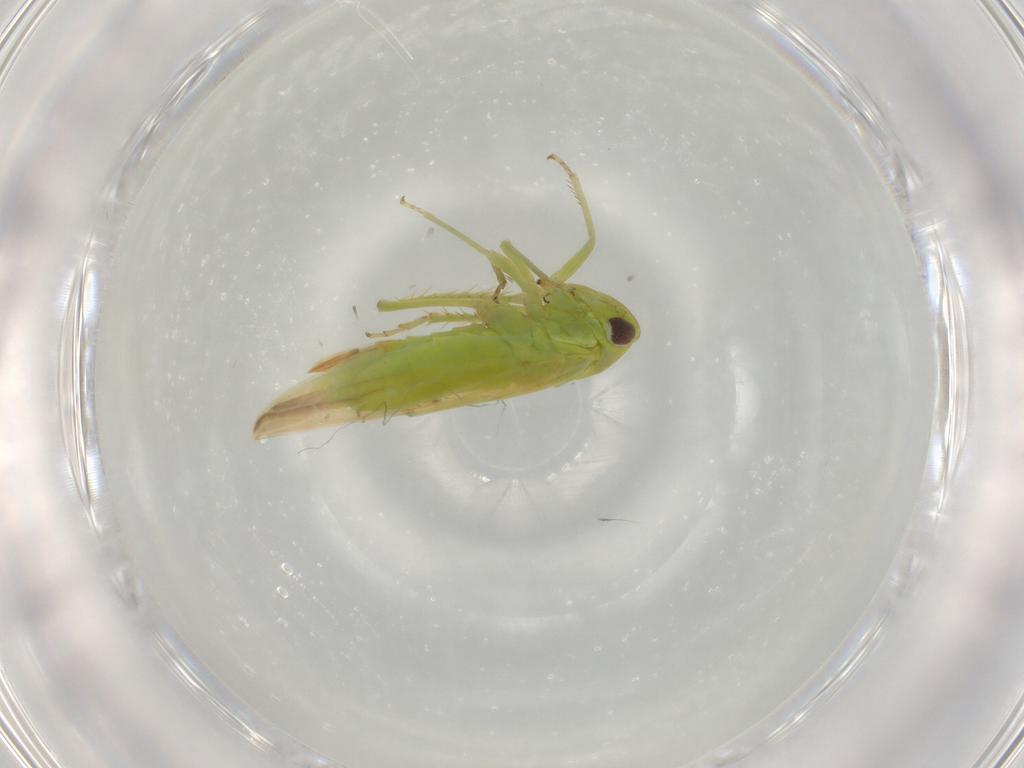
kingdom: Animalia
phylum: Arthropoda
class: Insecta
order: Hemiptera
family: Cicadellidae
